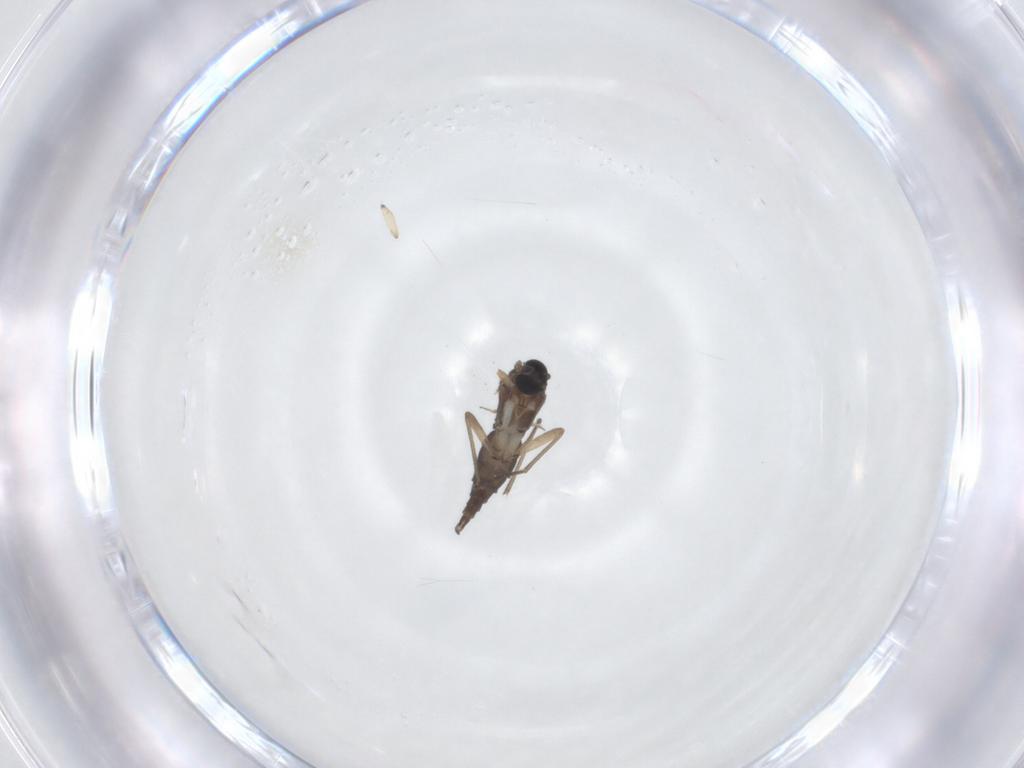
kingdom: Animalia
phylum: Arthropoda
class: Insecta
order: Diptera
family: Sciaridae
